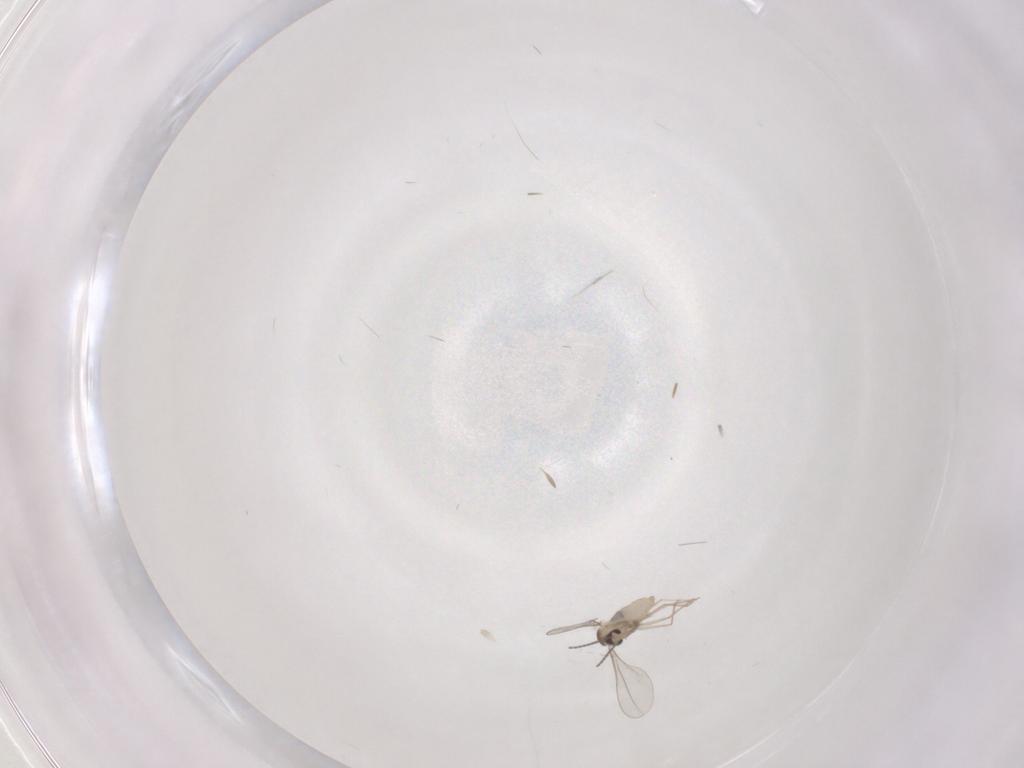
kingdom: Animalia
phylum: Arthropoda
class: Insecta
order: Diptera
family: Cecidomyiidae
